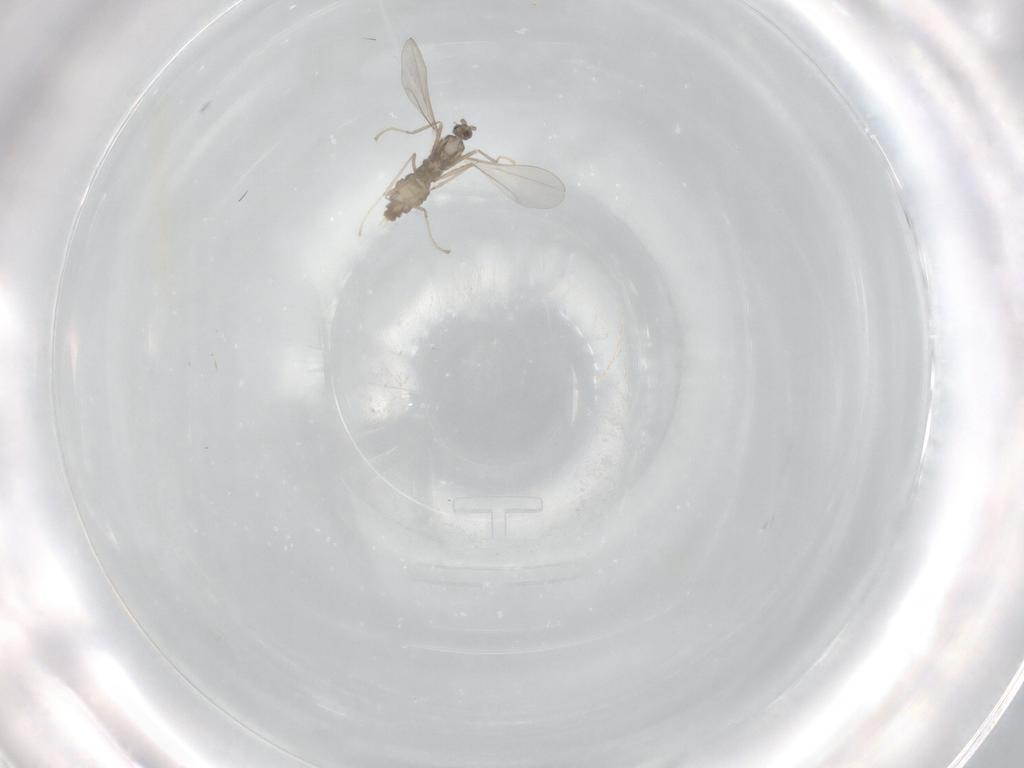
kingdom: Animalia
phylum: Arthropoda
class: Insecta
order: Diptera
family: Cecidomyiidae
